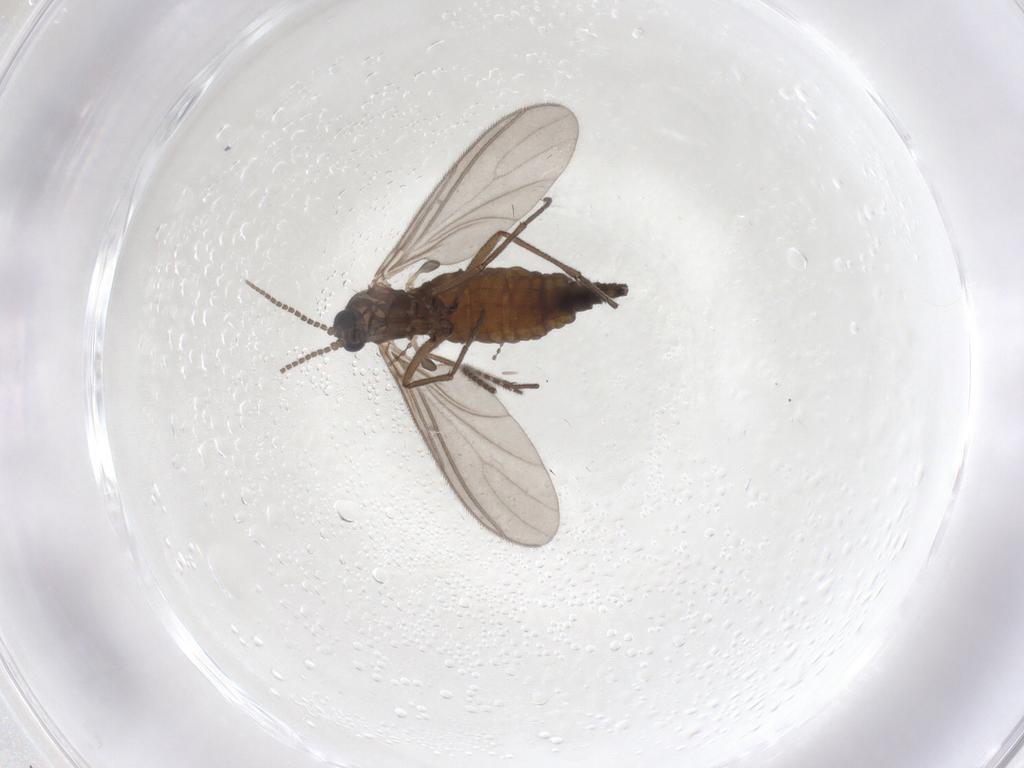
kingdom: Animalia
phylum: Arthropoda
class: Insecta
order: Diptera
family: Sciaridae
